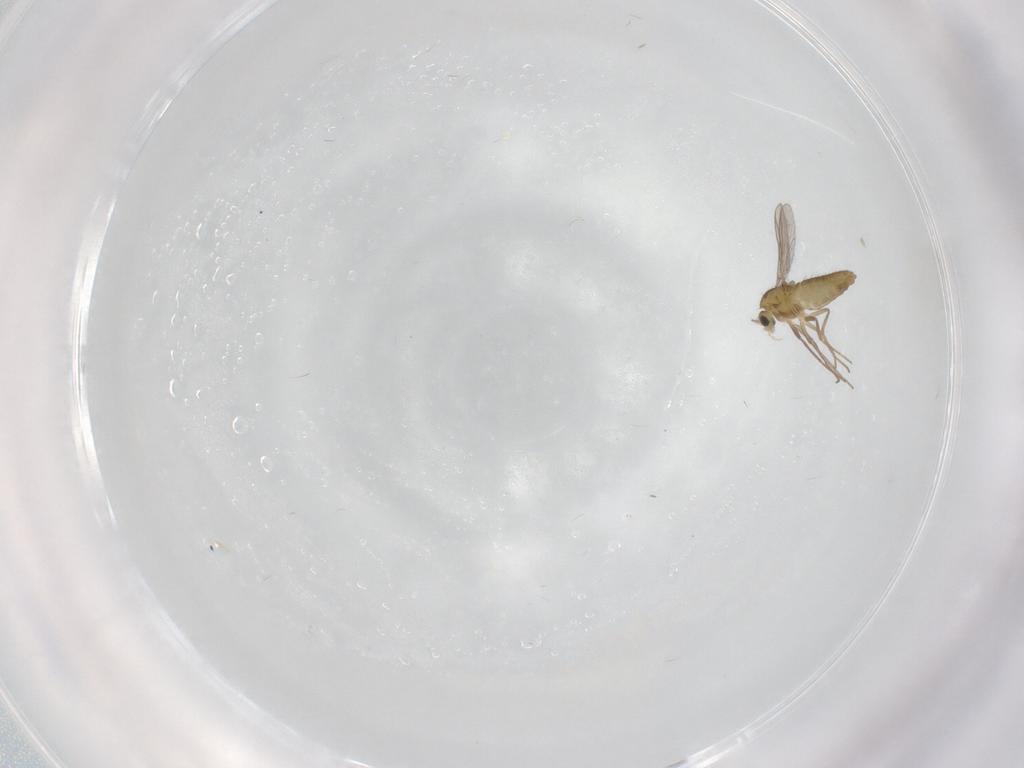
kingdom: Animalia
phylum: Arthropoda
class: Insecta
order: Diptera
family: Chironomidae
